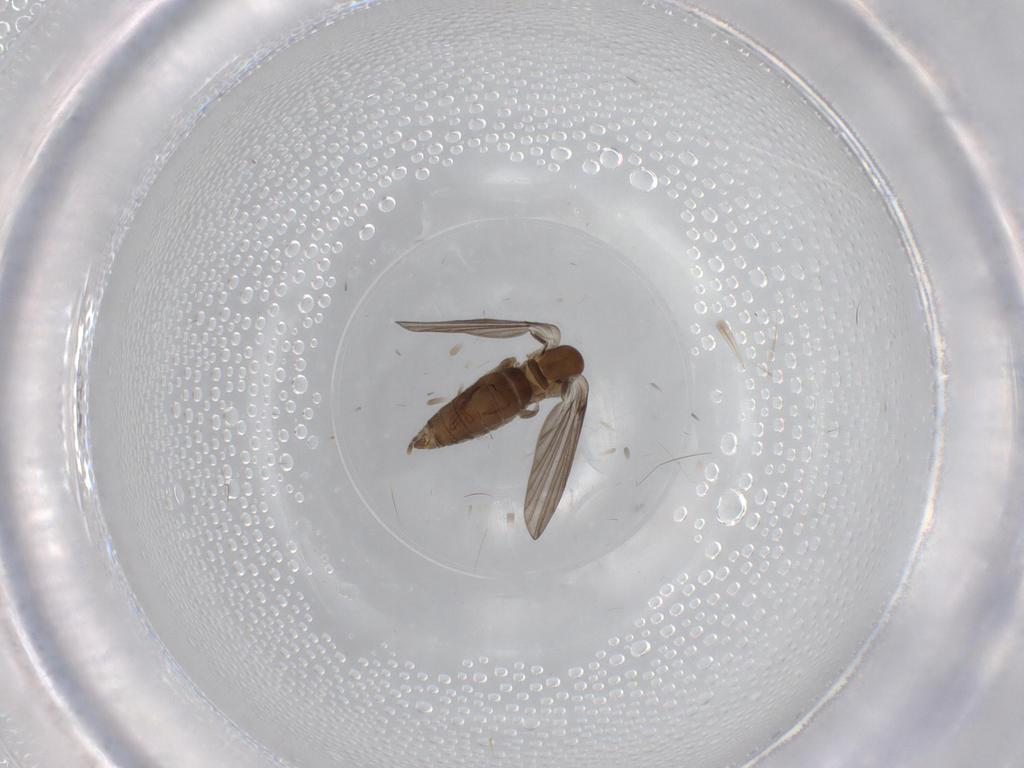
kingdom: Animalia
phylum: Arthropoda
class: Insecta
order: Diptera
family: Psychodidae
